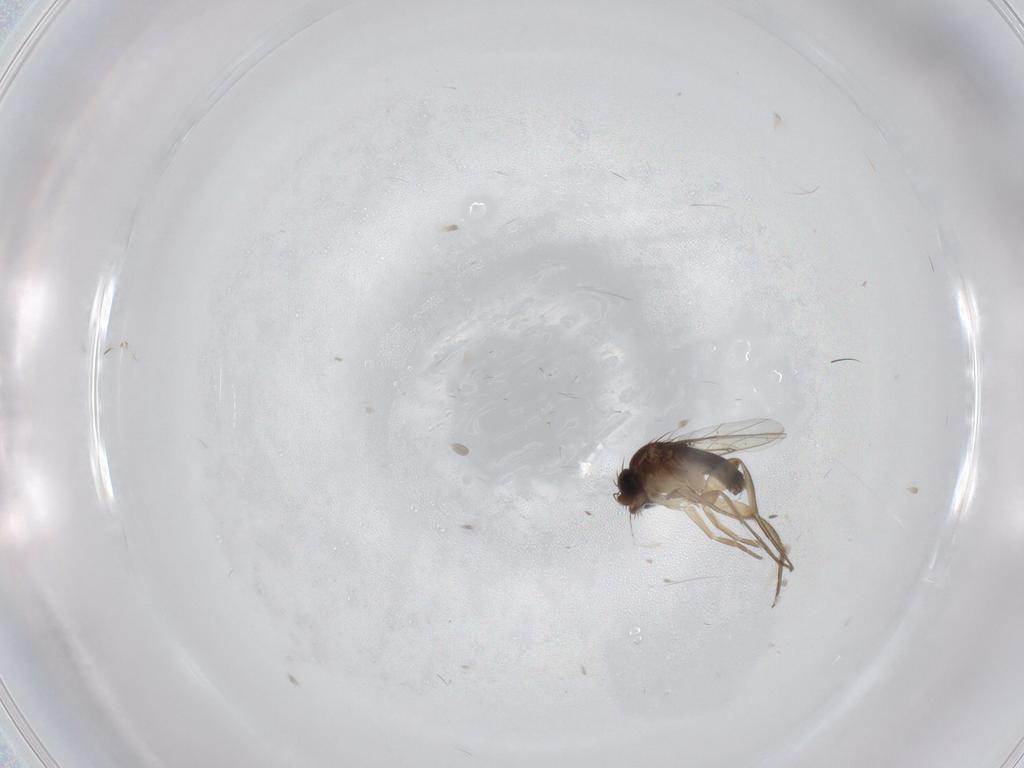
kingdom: Animalia
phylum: Arthropoda
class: Insecta
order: Diptera
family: Phoridae
